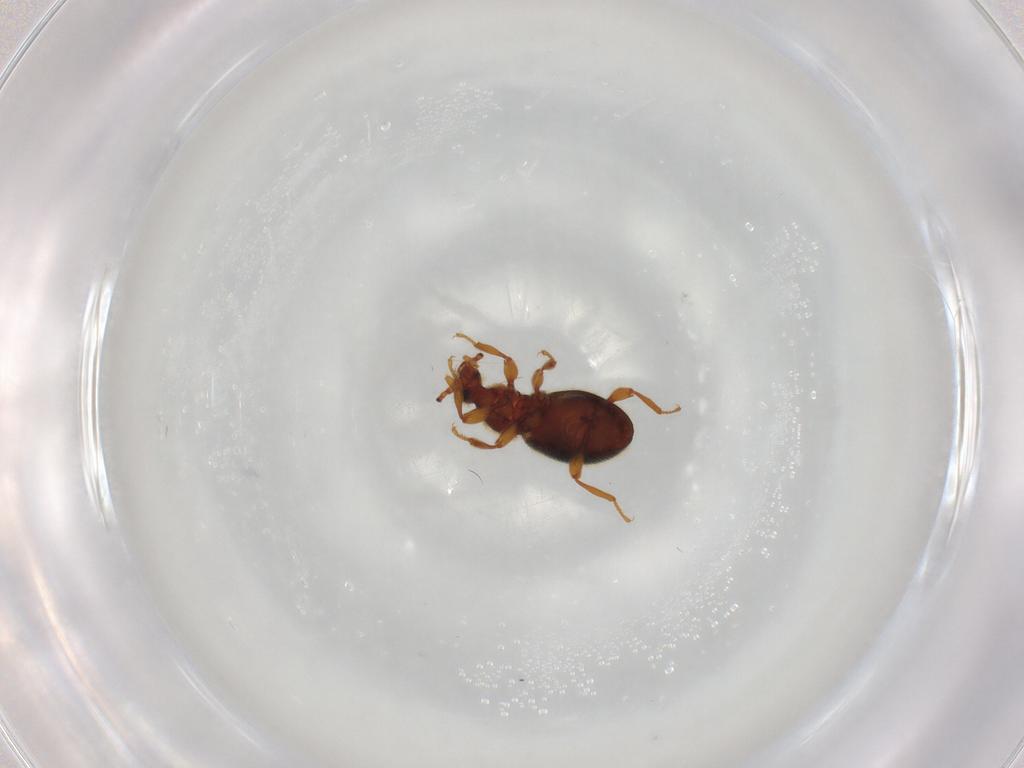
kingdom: Animalia
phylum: Arthropoda
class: Insecta
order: Coleoptera
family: Staphylinidae
